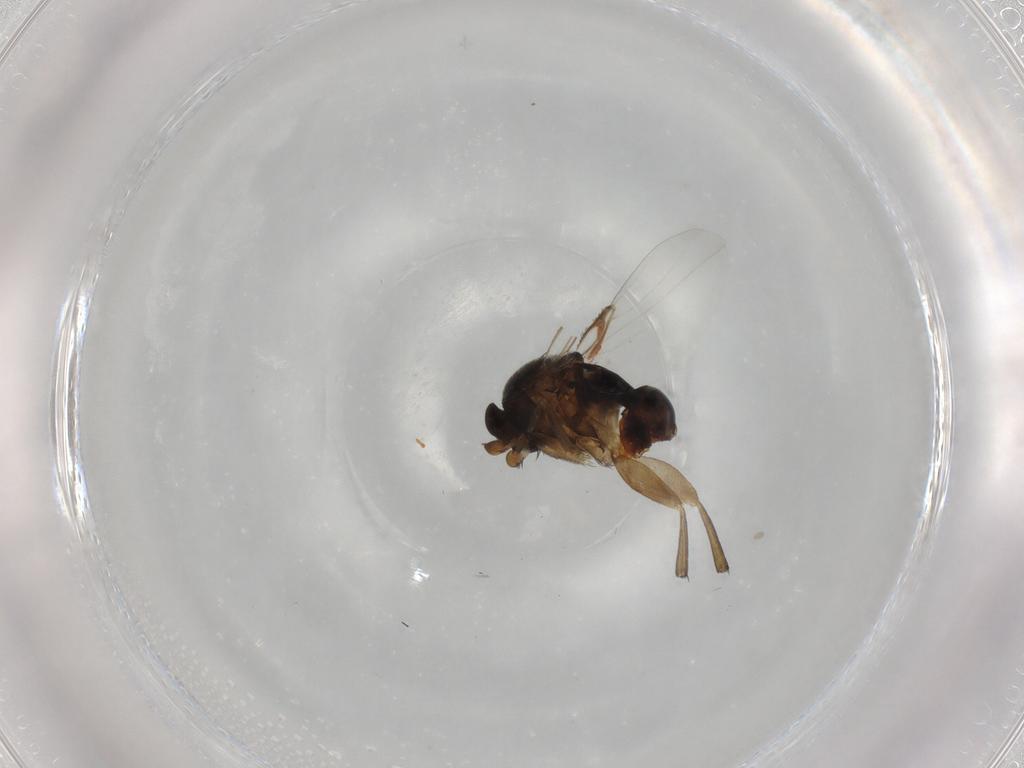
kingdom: Animalia
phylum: Arthropoda
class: Insecta
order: Diptera
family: Phoridae
